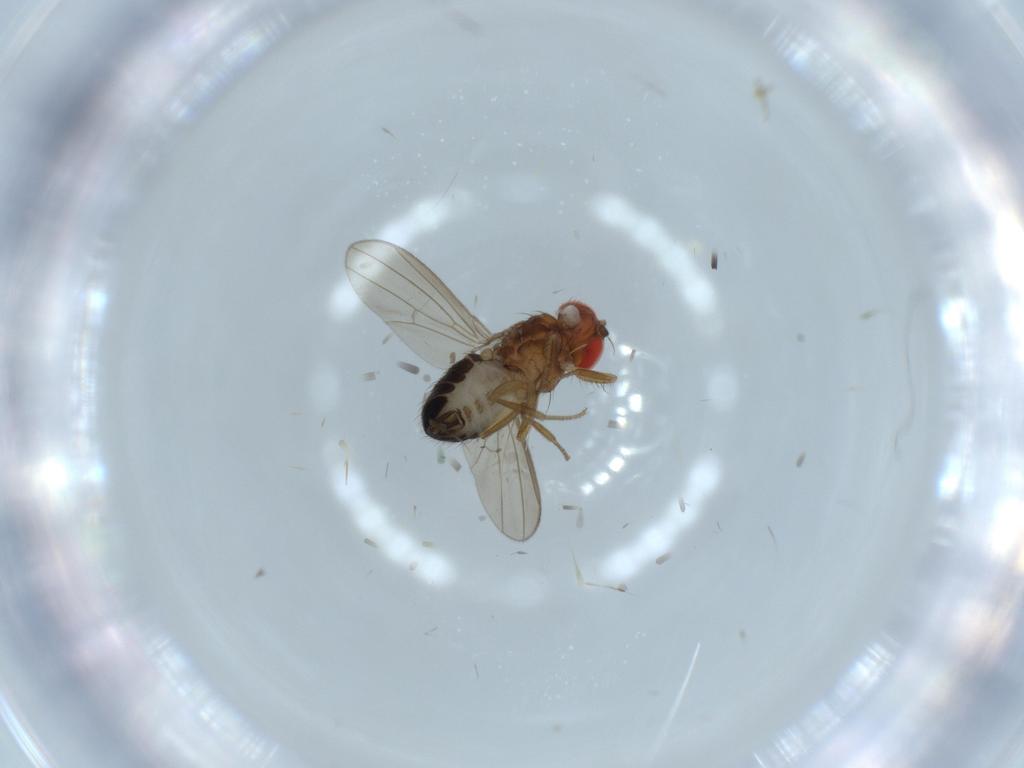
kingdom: Animalia
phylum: Arthropoda
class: Insecta
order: Diptera
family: Drosophilidae
